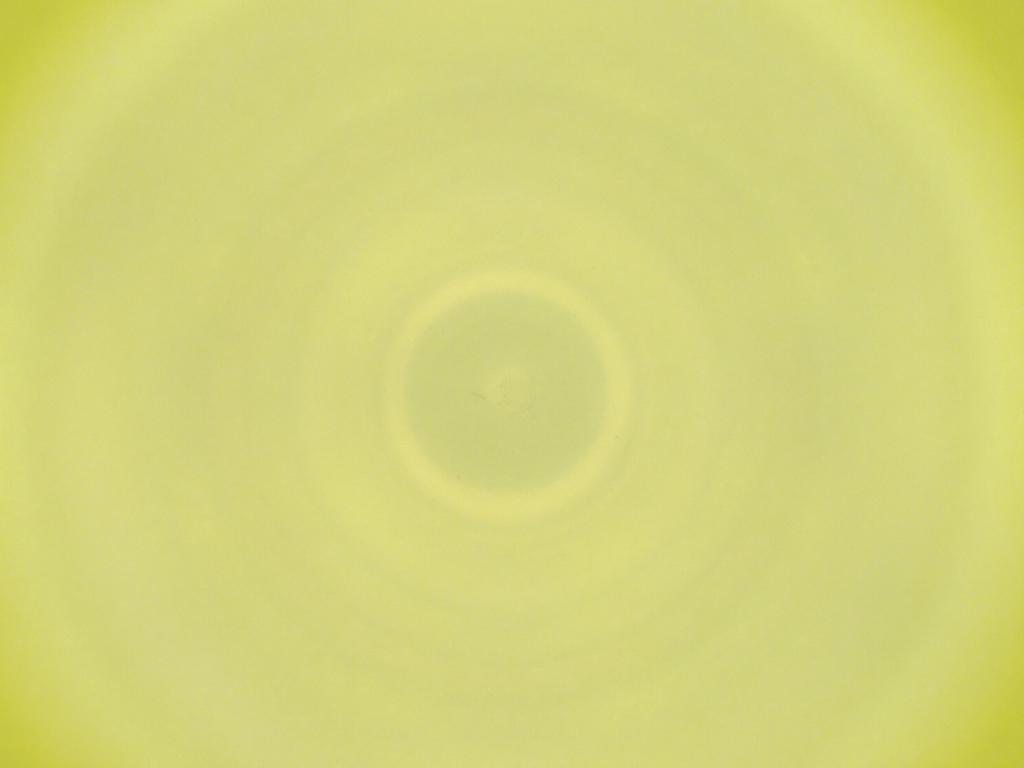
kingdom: Animalia
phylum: Arthropoda
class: Insecta
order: Diptera
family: Cecidomyiidae
